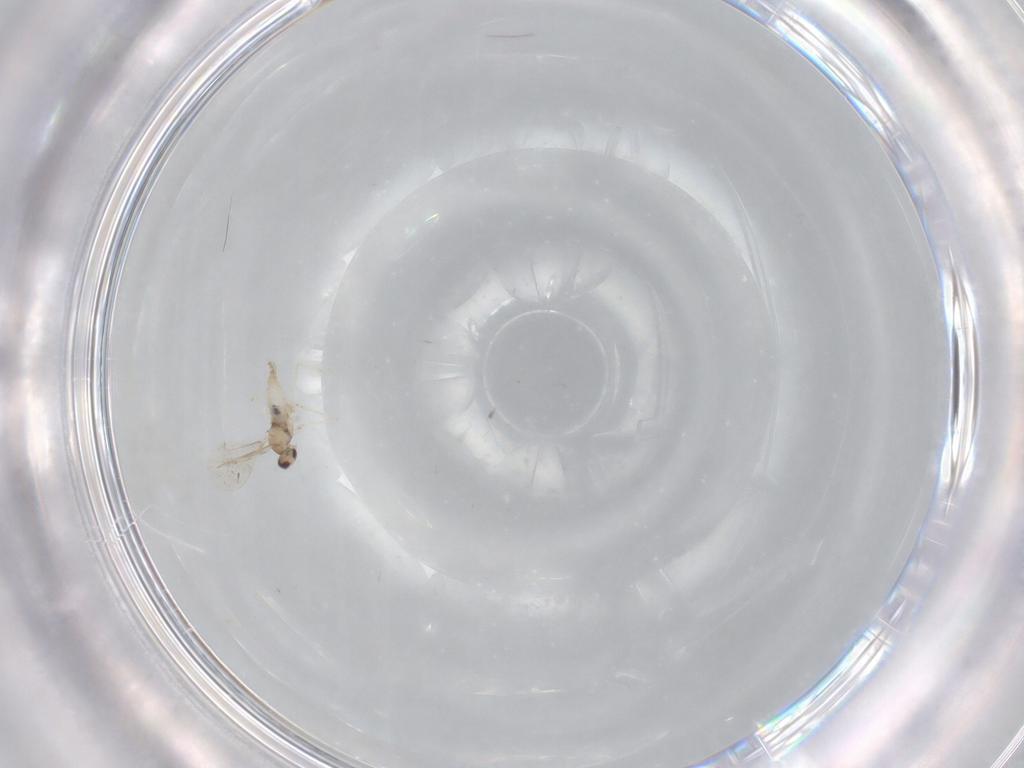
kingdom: Animalia
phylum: Arthropoda
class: Insecta
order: Diptera
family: Cecidomyiidae
